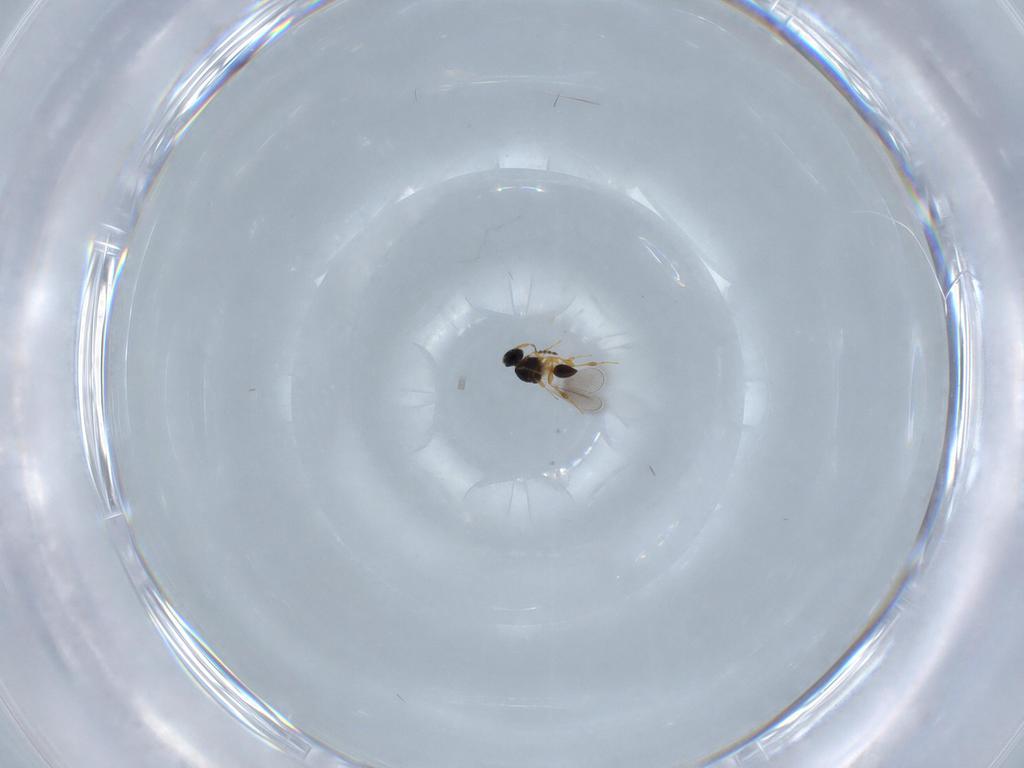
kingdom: Animalia
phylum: Arthropoda
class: Insecta
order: Hymenoptera
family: Platygastridae
